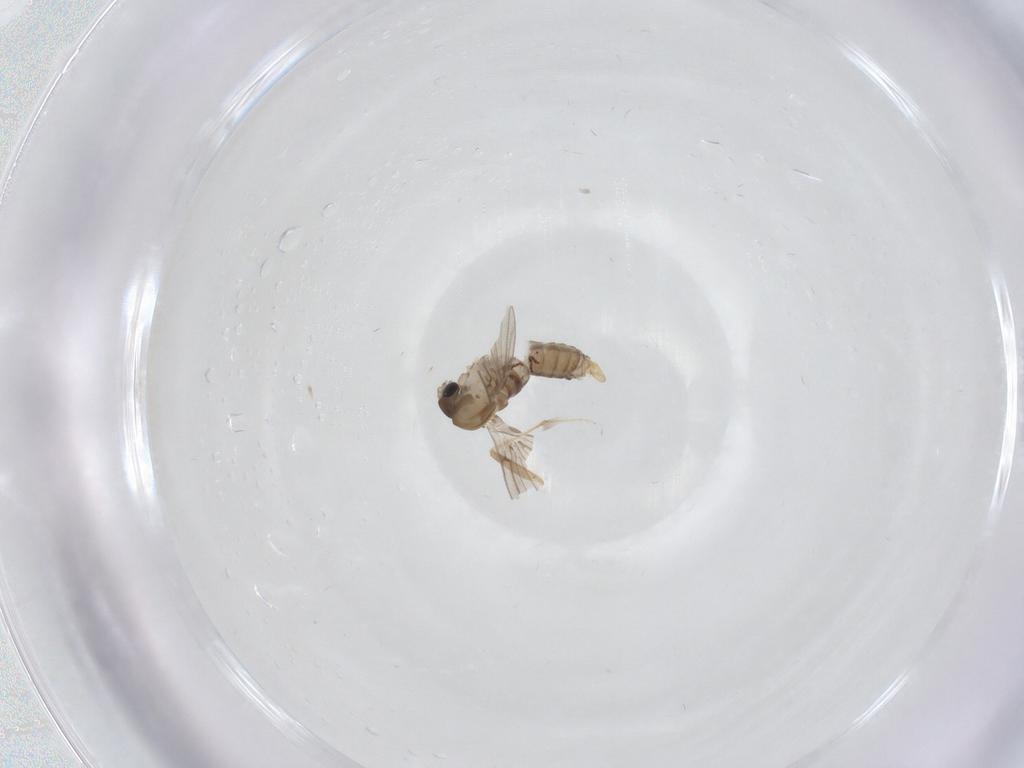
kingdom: Animalia
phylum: Arthropoda
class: Insecta
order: Diptera
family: Psychodidae
